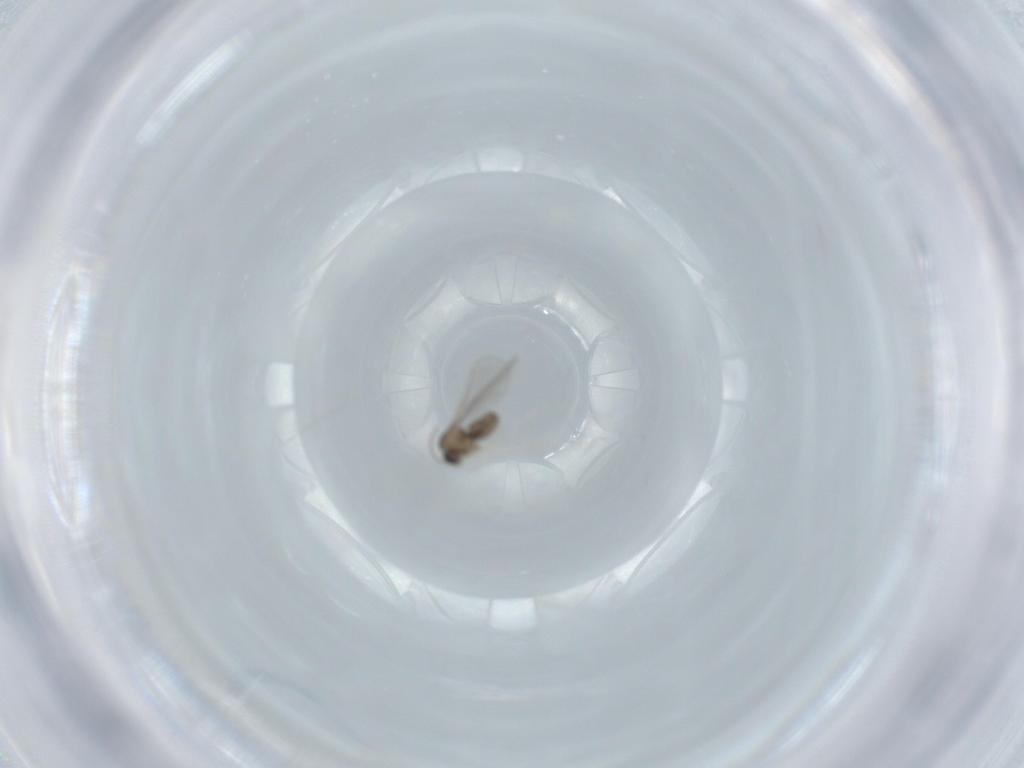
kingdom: Animalia
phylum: Arthropoda
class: Insecta
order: Diptera
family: Cecidomyiidae
